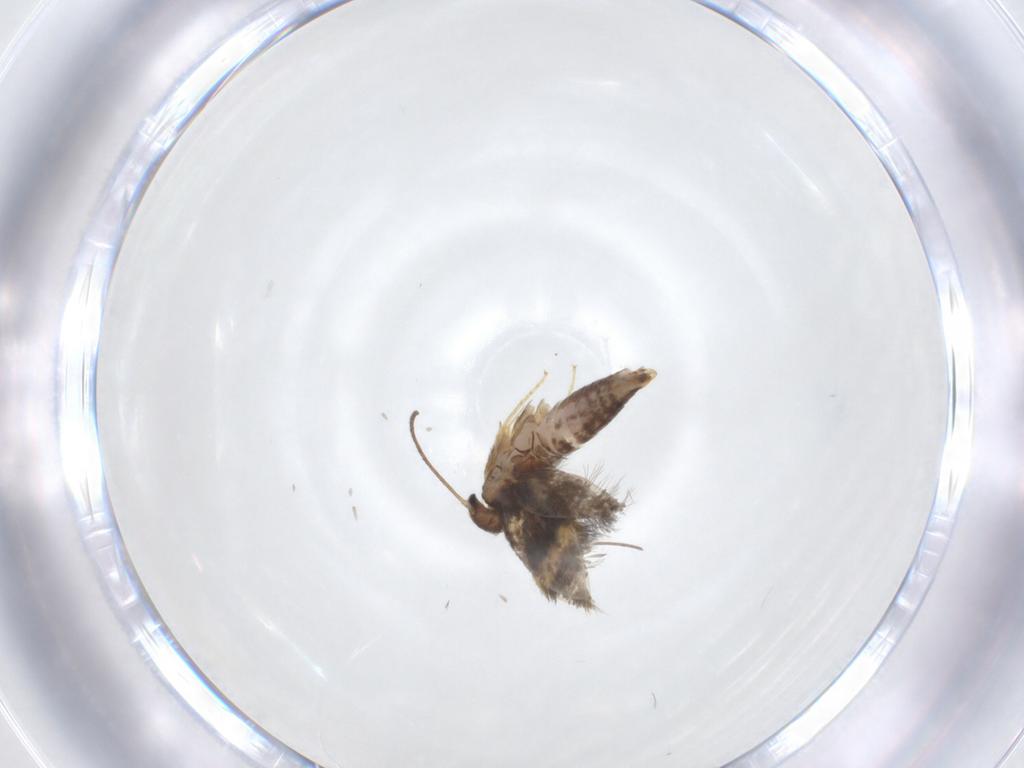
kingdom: Animalia
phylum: Arthropoda
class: Insecta
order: Lepidoptera
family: Heliozelidae
